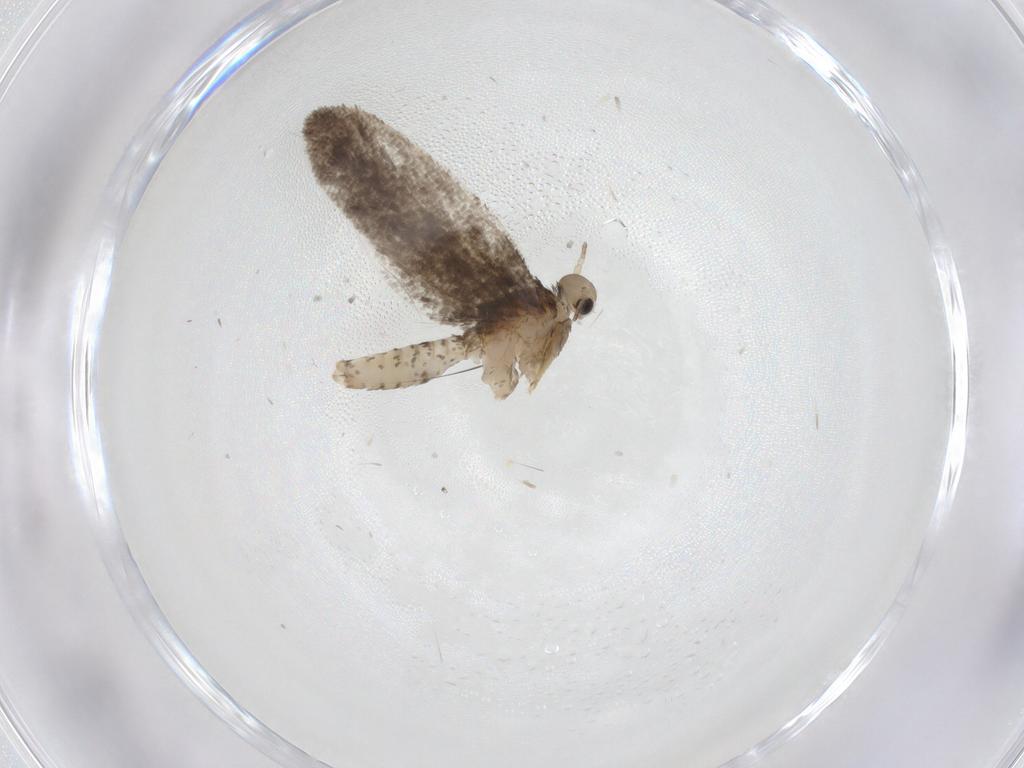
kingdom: Animalia
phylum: Arthropoda
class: Insecta
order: Lepidoptera
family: Psychidae
